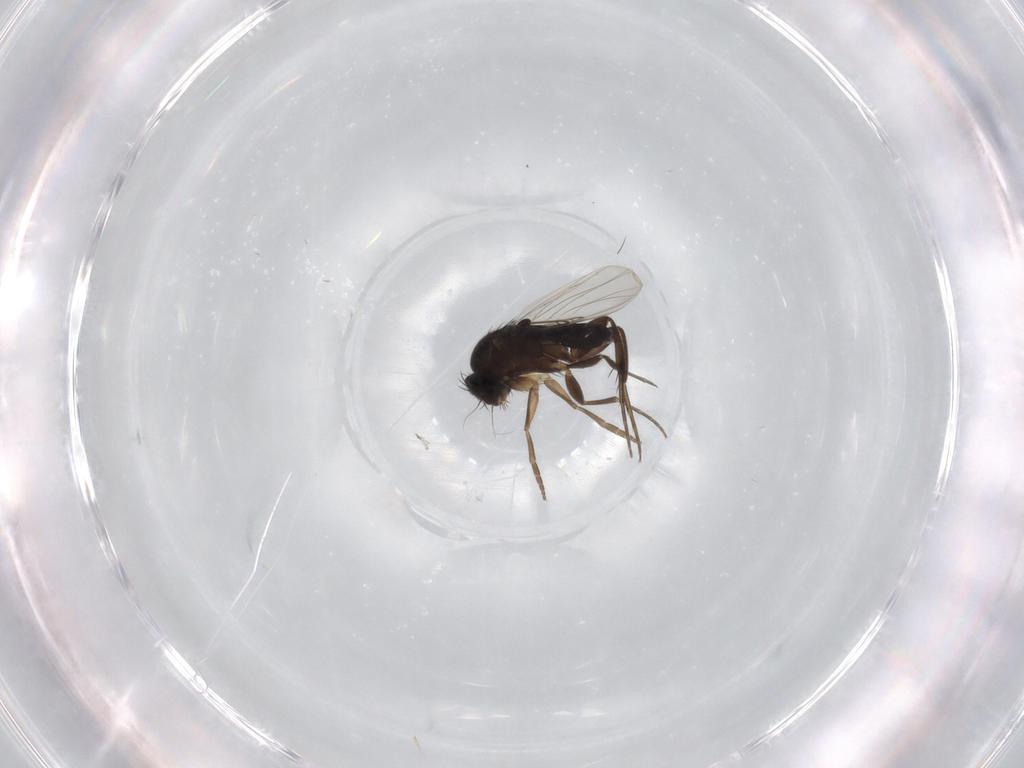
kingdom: Animalia
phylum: Arthropoda
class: Insecta
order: Diptera
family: Phoridae
